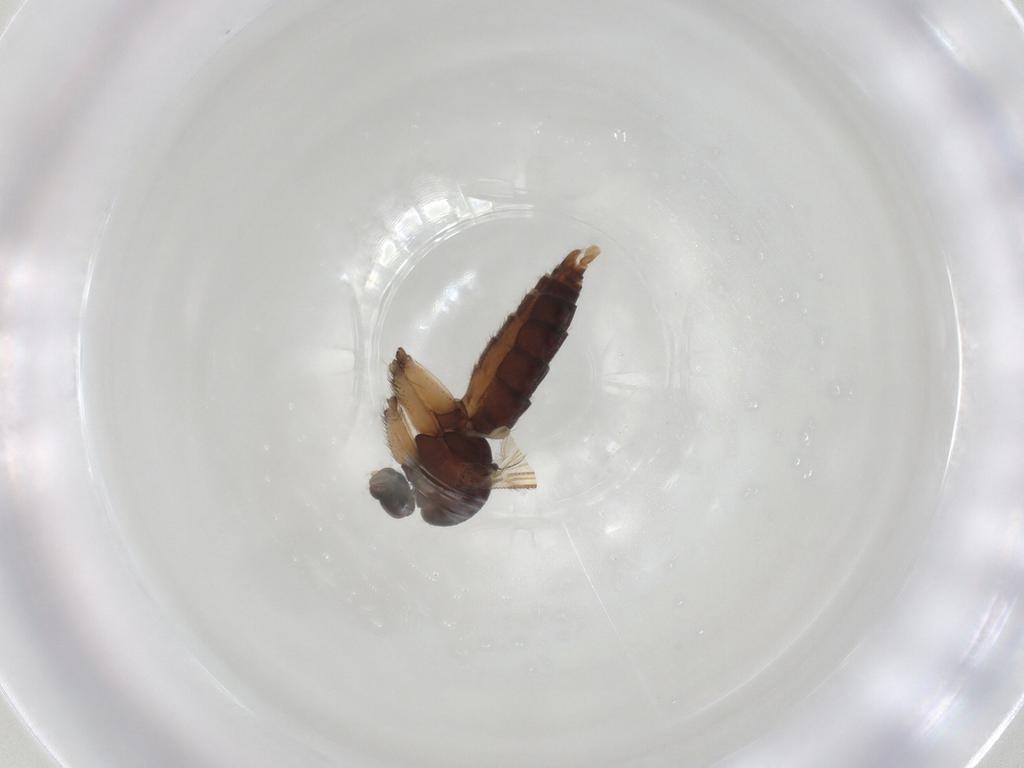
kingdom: Animalia
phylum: Arthropoda
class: Insecta
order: Diptera
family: Mycetophilidae
